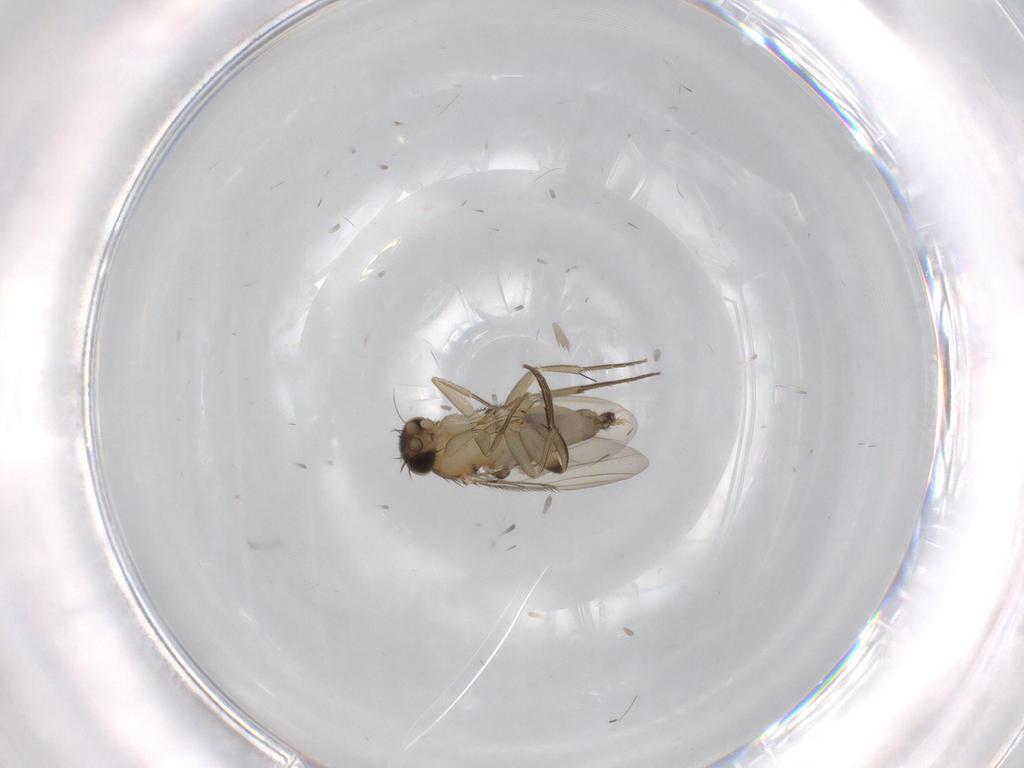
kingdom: Animalia
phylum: Arthropoda
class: Insecta
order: Diptera
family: Phoridae
